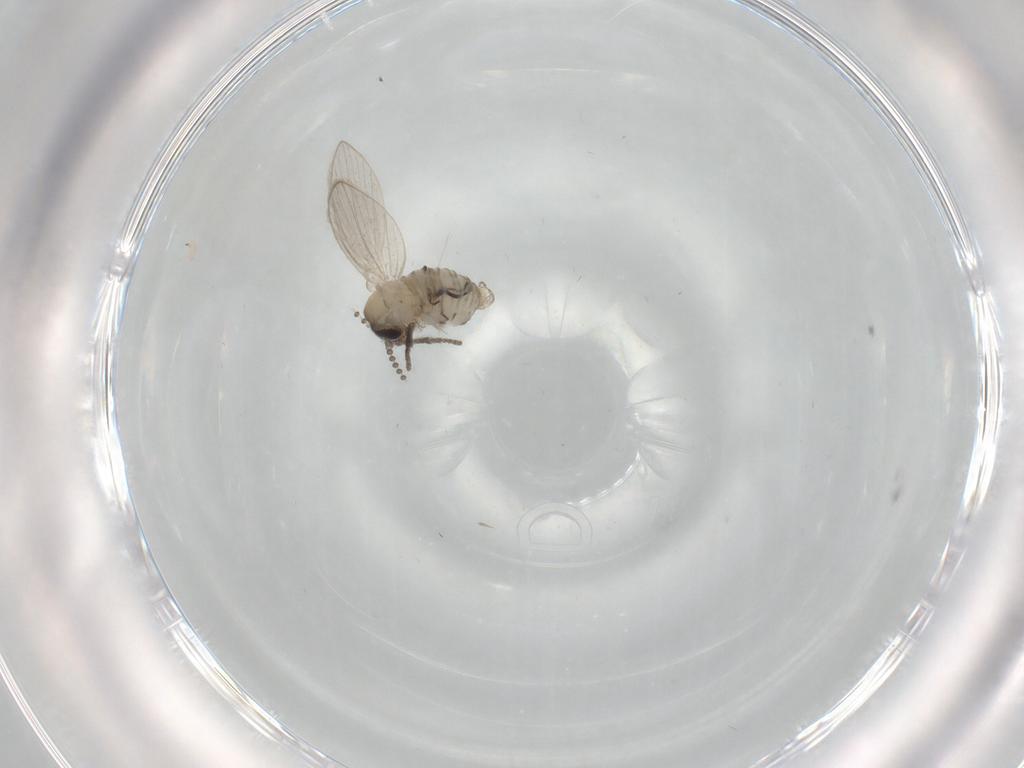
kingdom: Animalia
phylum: Arthropoda
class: Insecta
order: Diptera
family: Psychodidae
